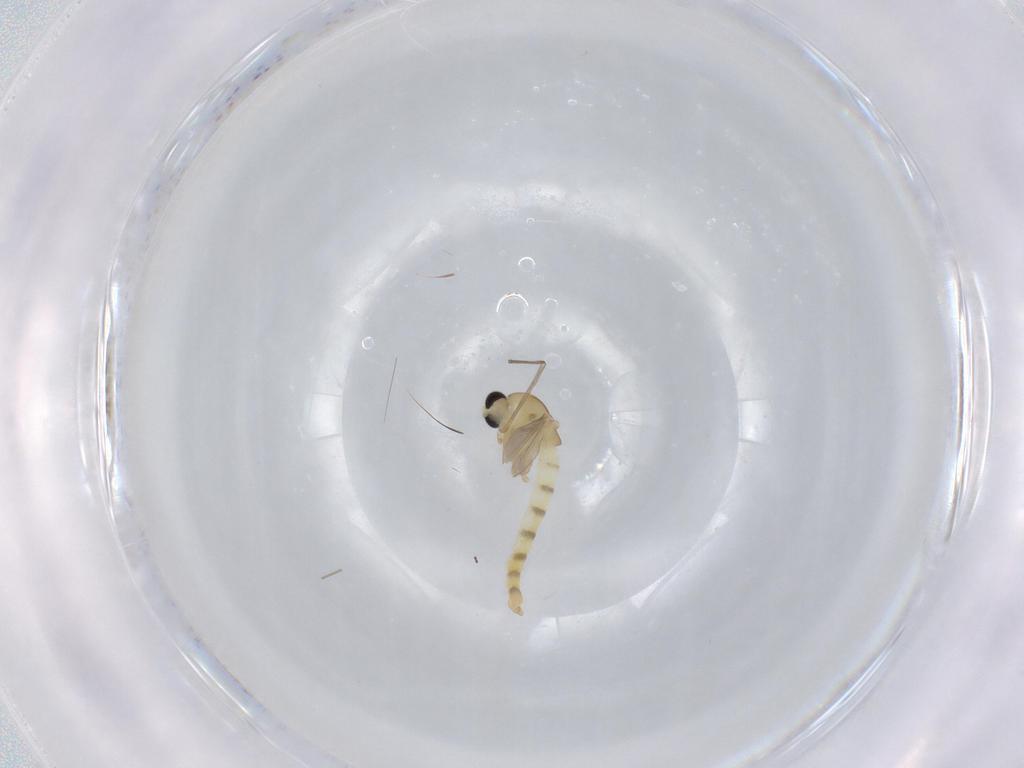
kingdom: Animalia
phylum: Arthropoda
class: Insecta
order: Diptera
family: Chironomidae
